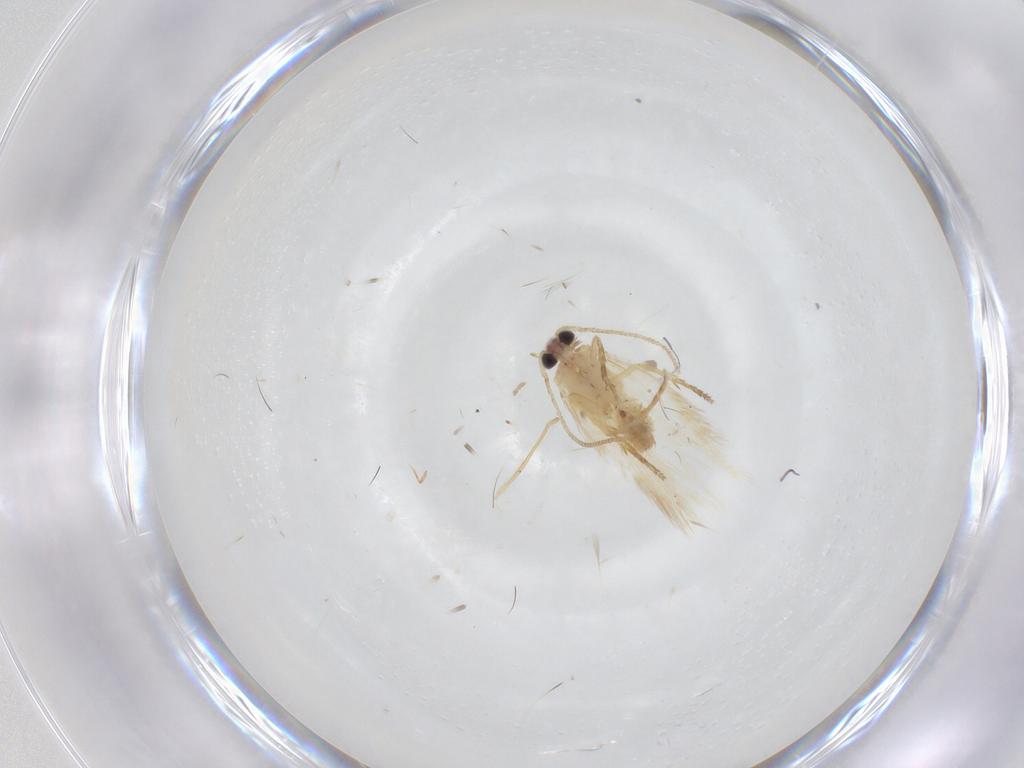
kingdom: Animalia
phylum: Arthropoda
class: Insecta
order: Lepidoptera
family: Nepticulidae
